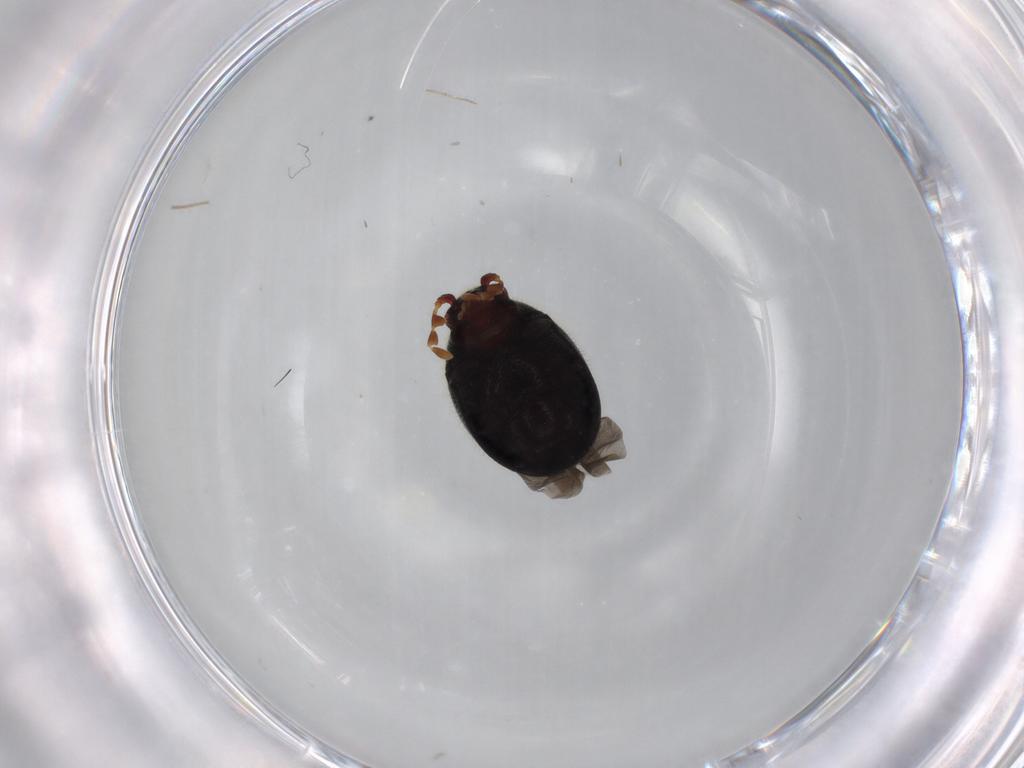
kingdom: Animalia
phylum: Arthropoda
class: Insecta
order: Coleoptera
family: Ptinidae
